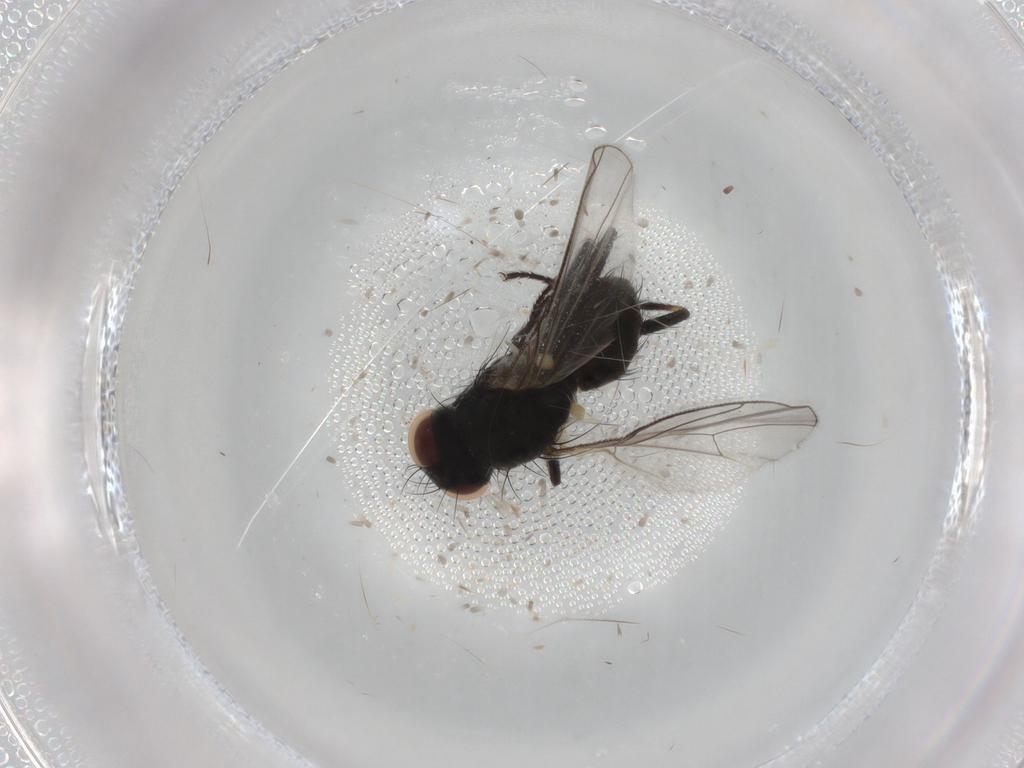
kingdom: Animalia
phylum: Arthropoda
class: Insecta
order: Diptera
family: Muscidae
